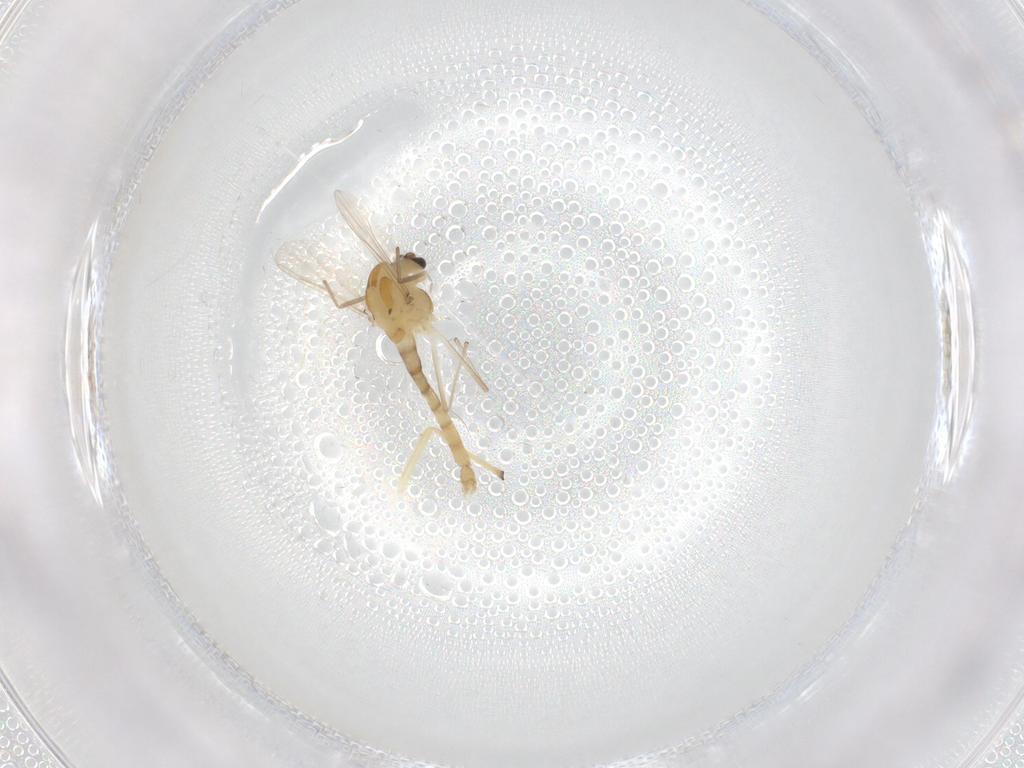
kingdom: Animalia
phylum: Arthropoda
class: Insecta
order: Diptera
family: Chironomidae
